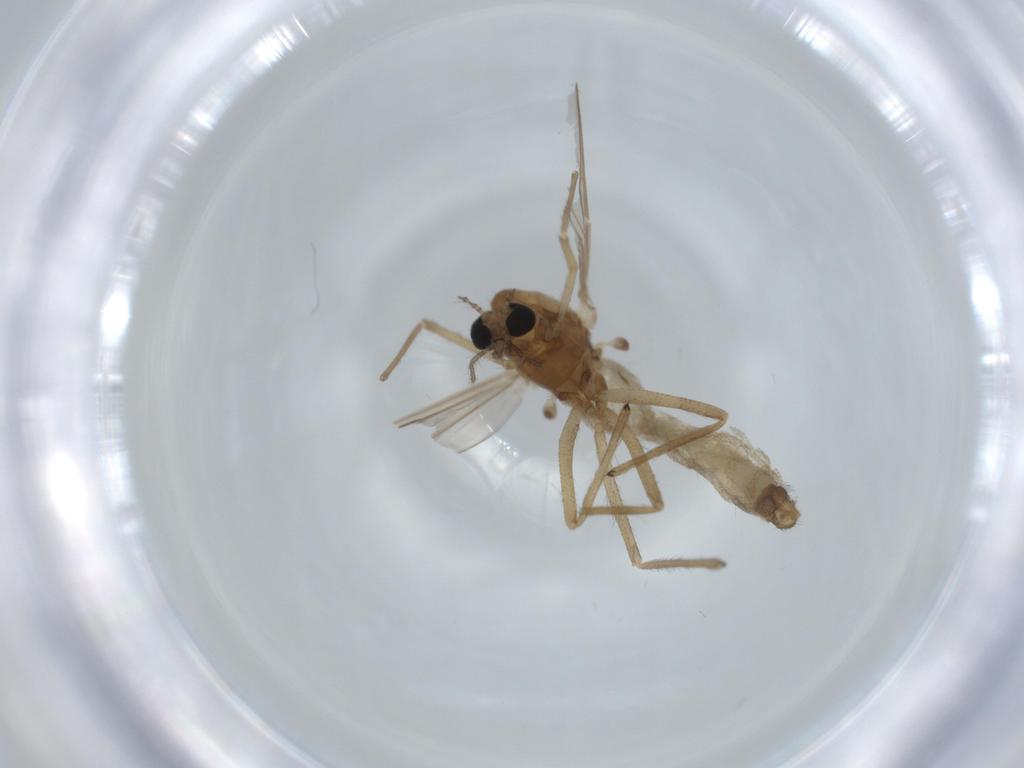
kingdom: Animalia
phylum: Arthropoda
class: Insecta
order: Diptera
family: Chironomidae
